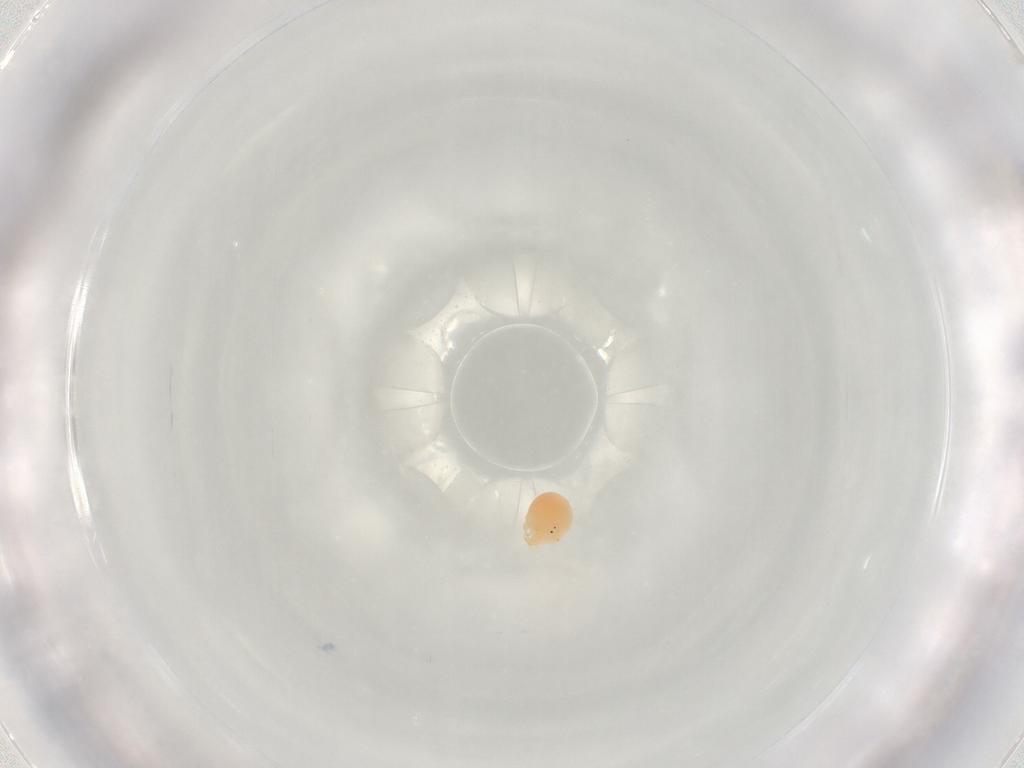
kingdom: Animalia
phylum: Arthropoda
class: Arachnida
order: Trombidiformes
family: Hydryphantidae
